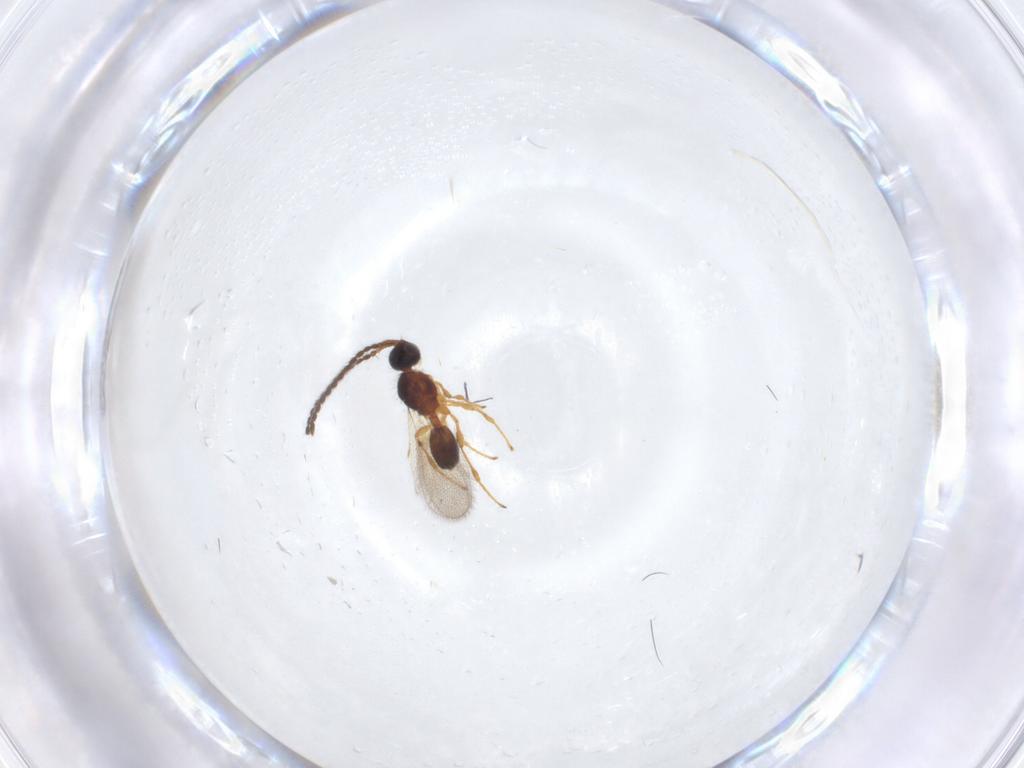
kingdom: Animalia
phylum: Arthropoda
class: Insecta
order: Hymenoptera
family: Diapriidae
